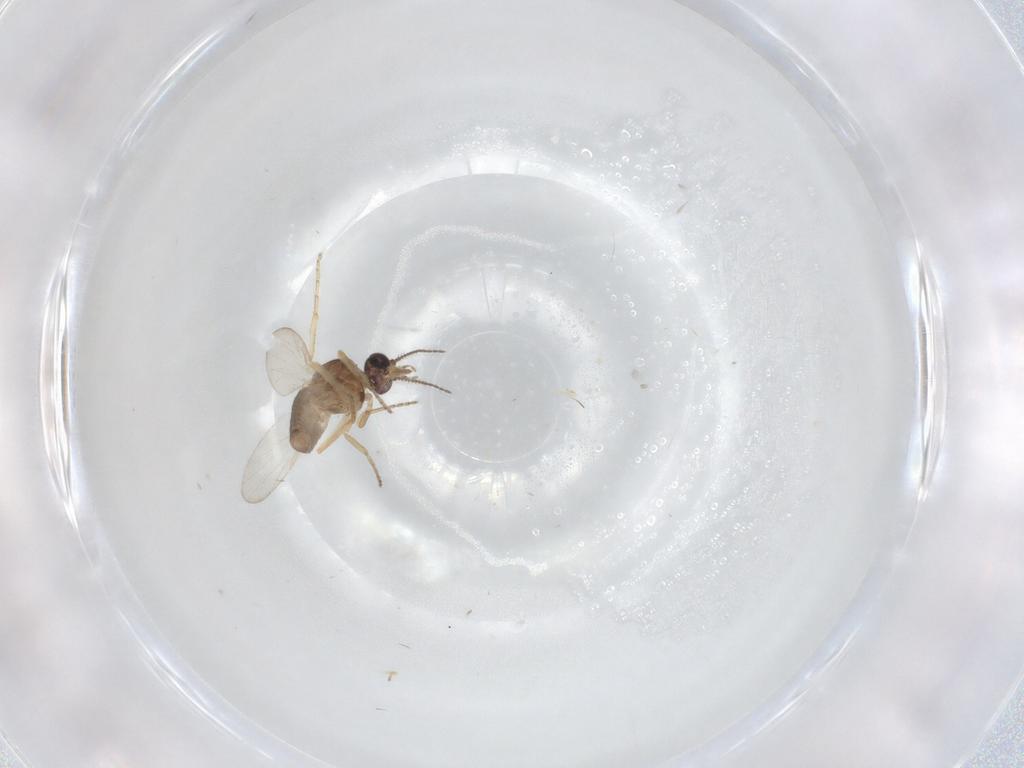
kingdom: Animalia
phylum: Arthropoda
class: Insecta
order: Diptera
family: Ceratopogonidae
